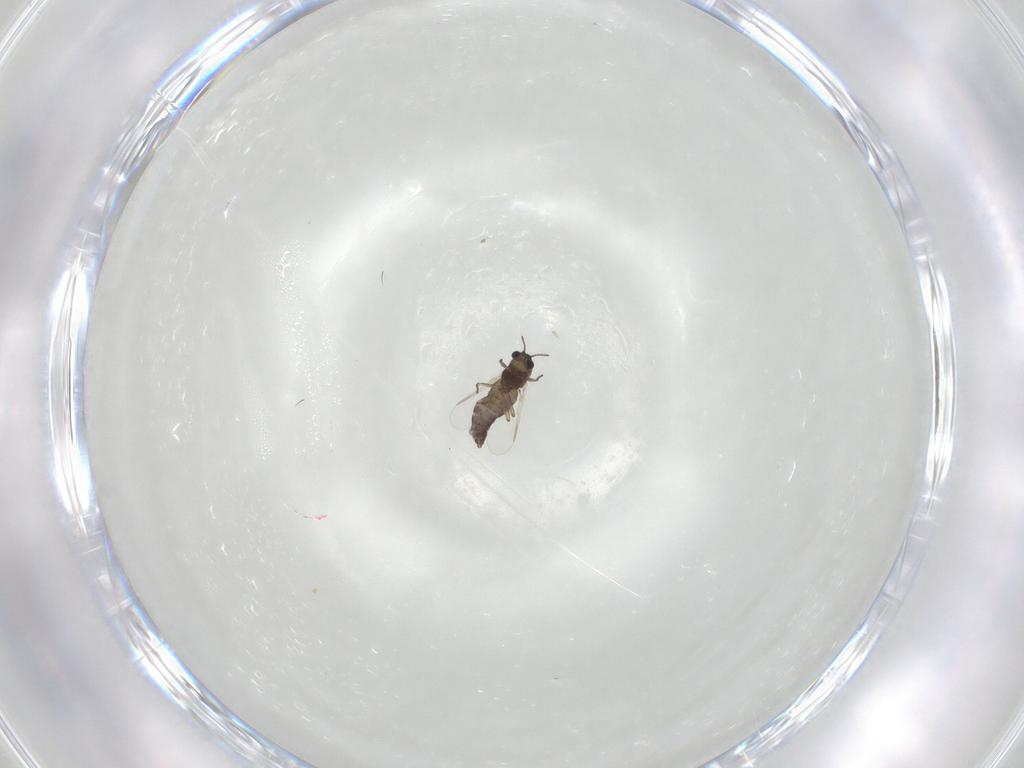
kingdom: Animalia
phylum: Arthropoda
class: Insecta
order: Diptera
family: Chironomidae
